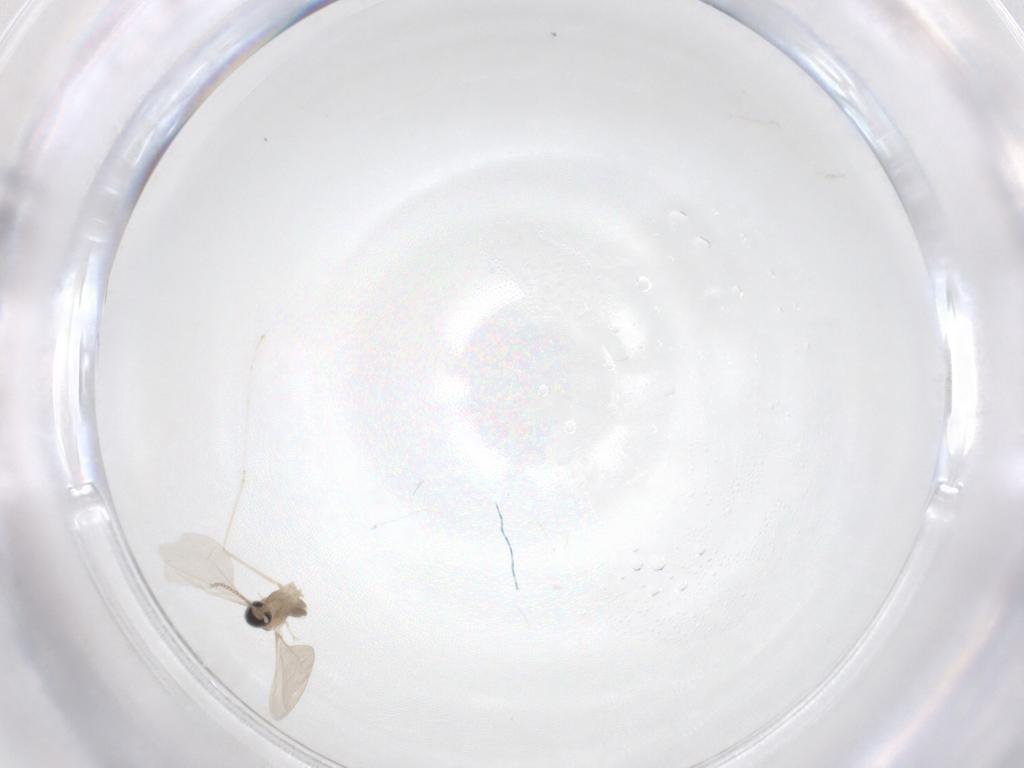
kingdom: Animalia
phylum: Arthropoda
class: Insecta
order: Diptera
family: Cecidomyiidae
